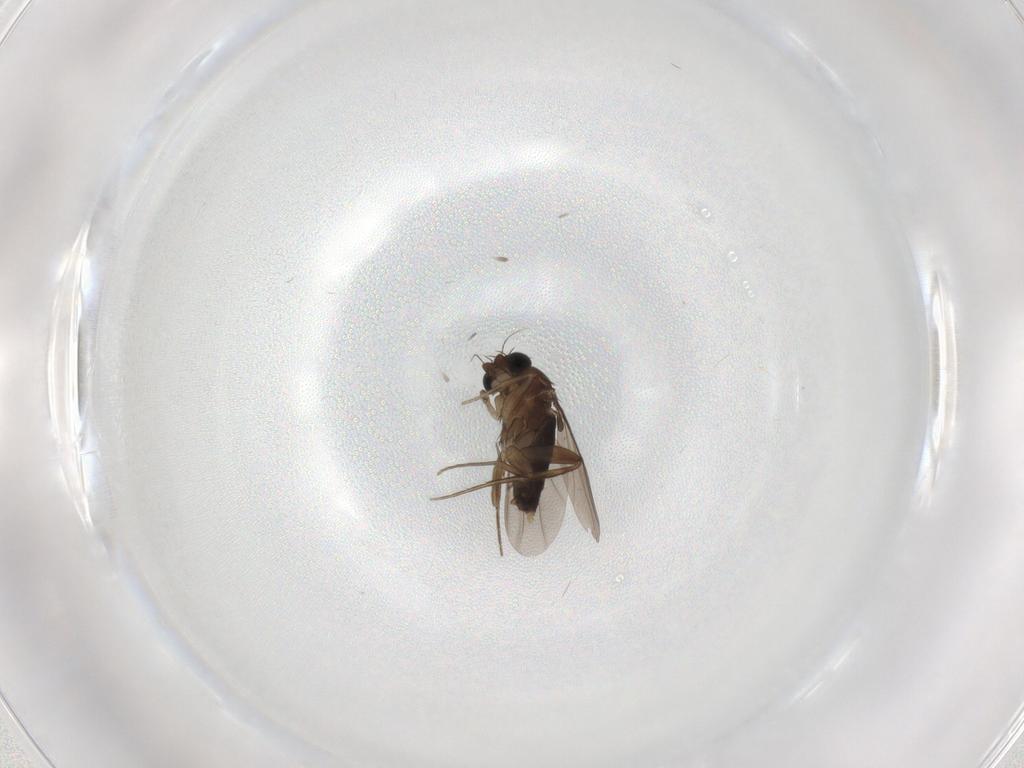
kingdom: Animalia
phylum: Arthropoda
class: Insecta
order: Diptera
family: Phoridae
